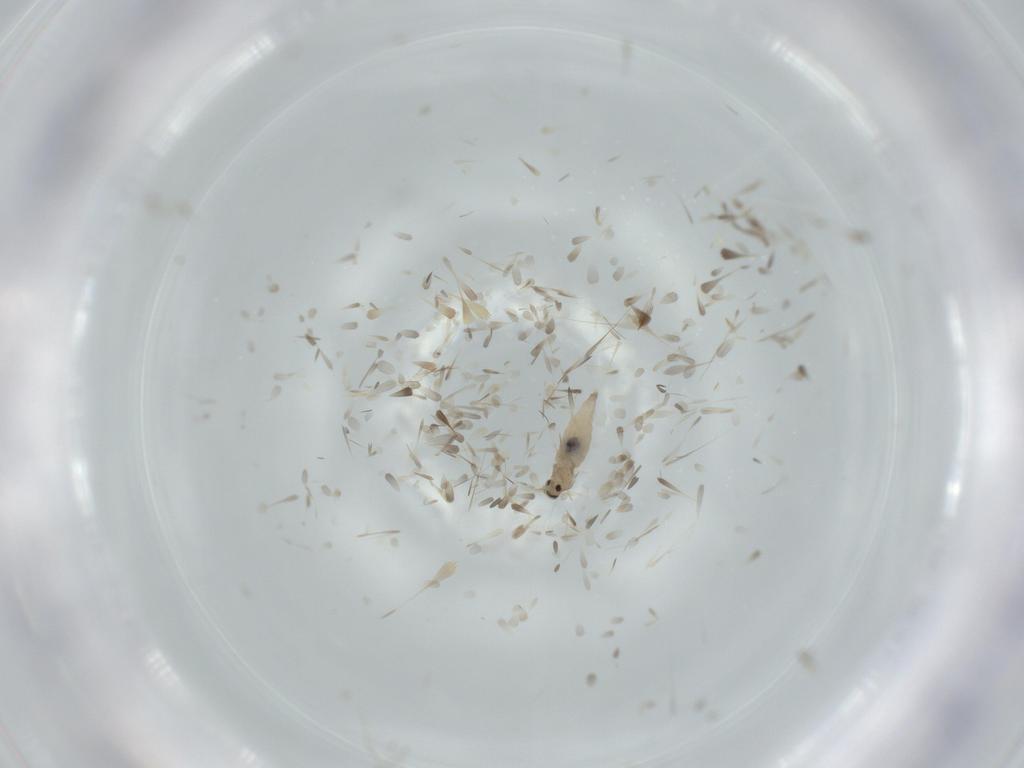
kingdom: Animalia
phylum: Arthropoda
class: Insecta
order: Diptera
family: Cecidomyiidae
